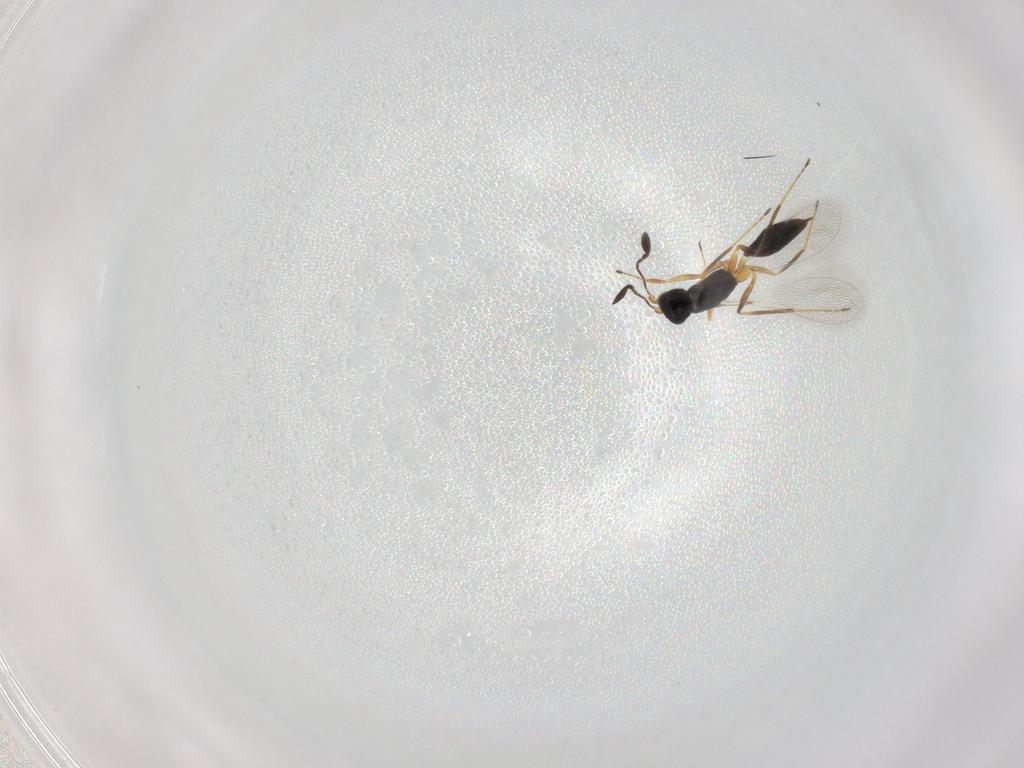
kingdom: Animalia
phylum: Arthropoda
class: Insecta
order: Hymenoptera
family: Mymaridae
